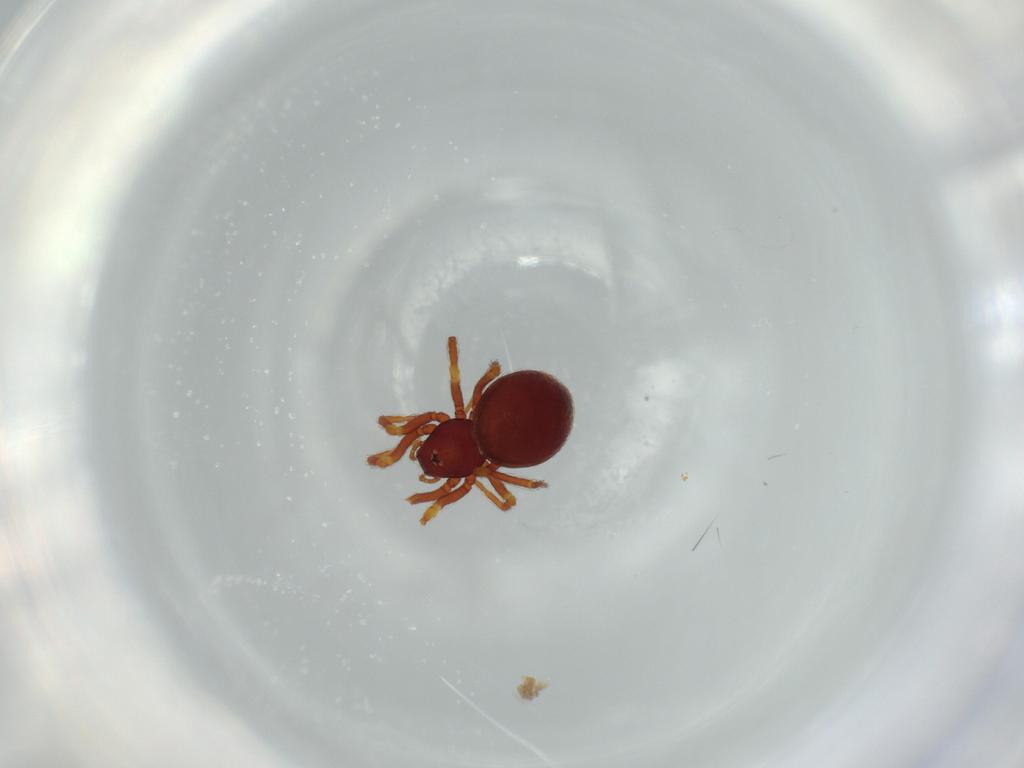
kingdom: Animalia
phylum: Arthropoda
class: Arachnida
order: Araneae
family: Tetrablemmidae
